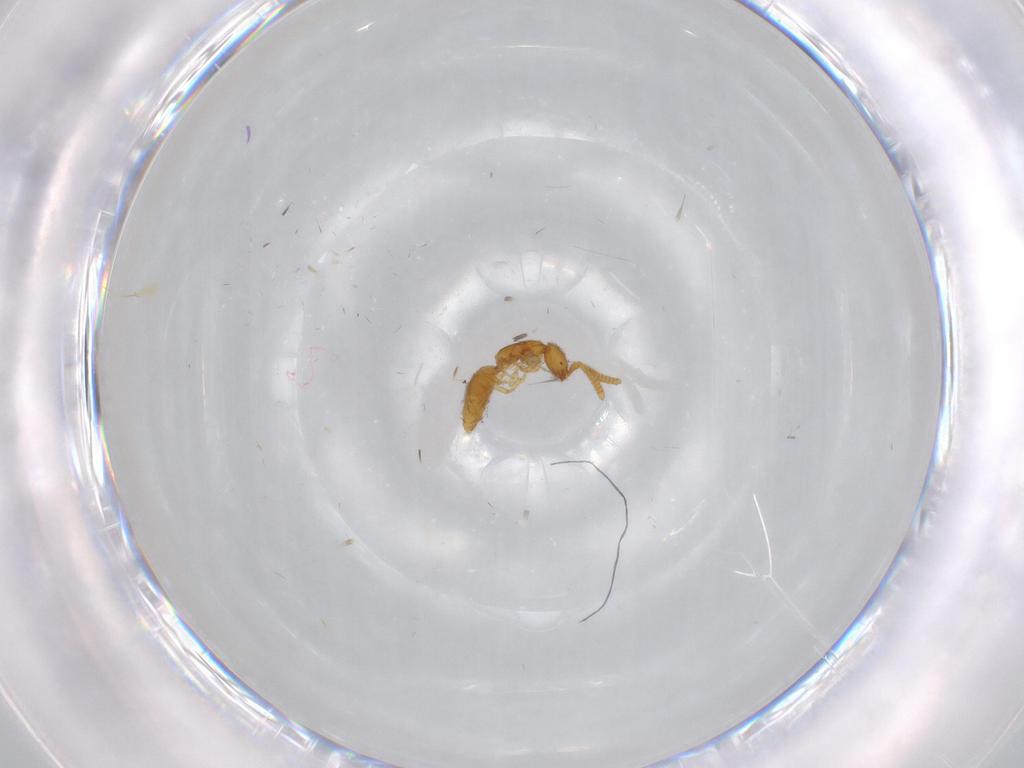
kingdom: Animalia
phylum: Arthropoda
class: Insecta
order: Hymenoptera
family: Bethylidae
